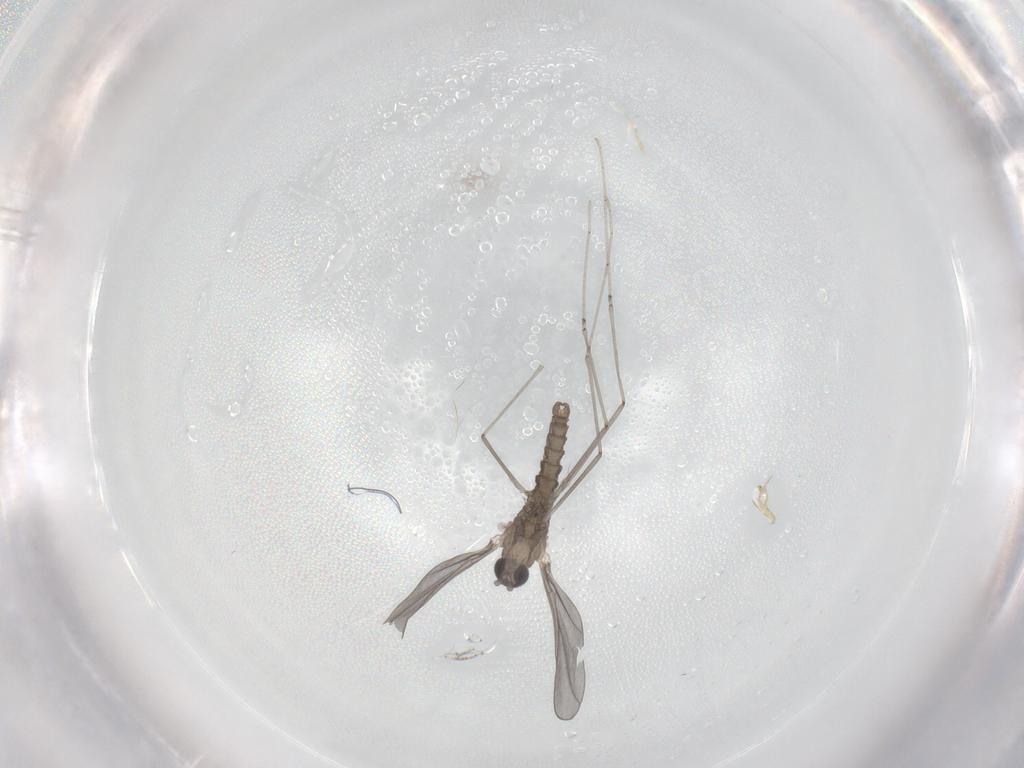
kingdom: Animalia
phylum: Arthropoda
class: Insecta
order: Diptera
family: Cecidomyiidae
